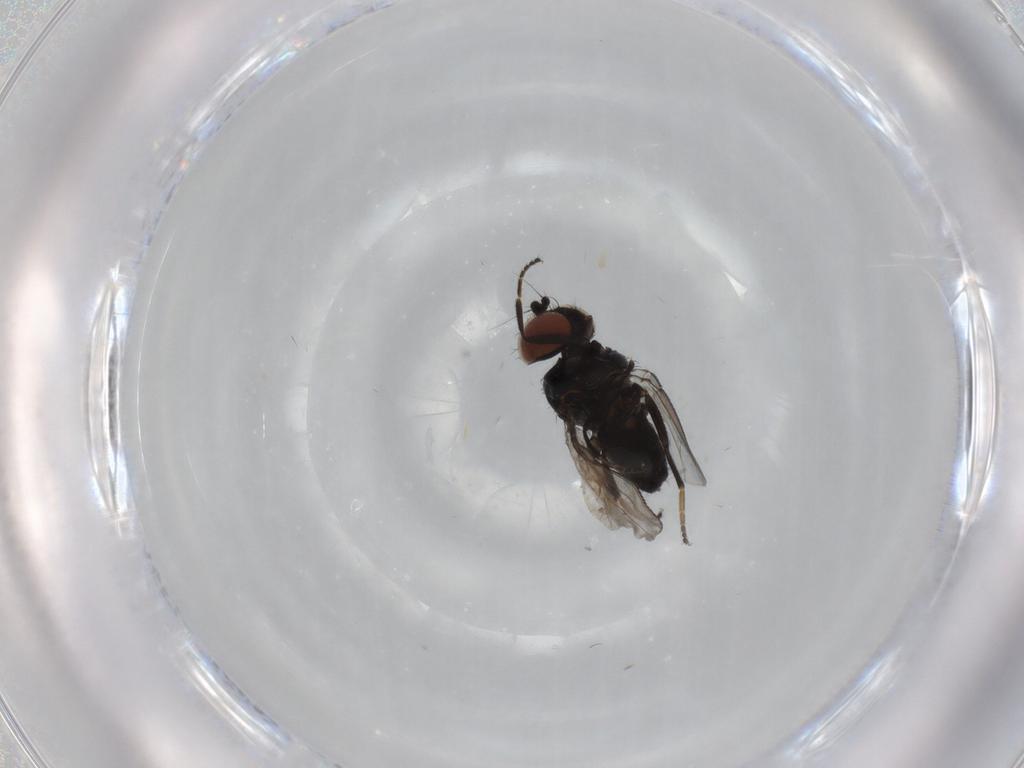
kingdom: Animalia
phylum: Arthropoda
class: Insecta
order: Diptera
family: Milichiidae
